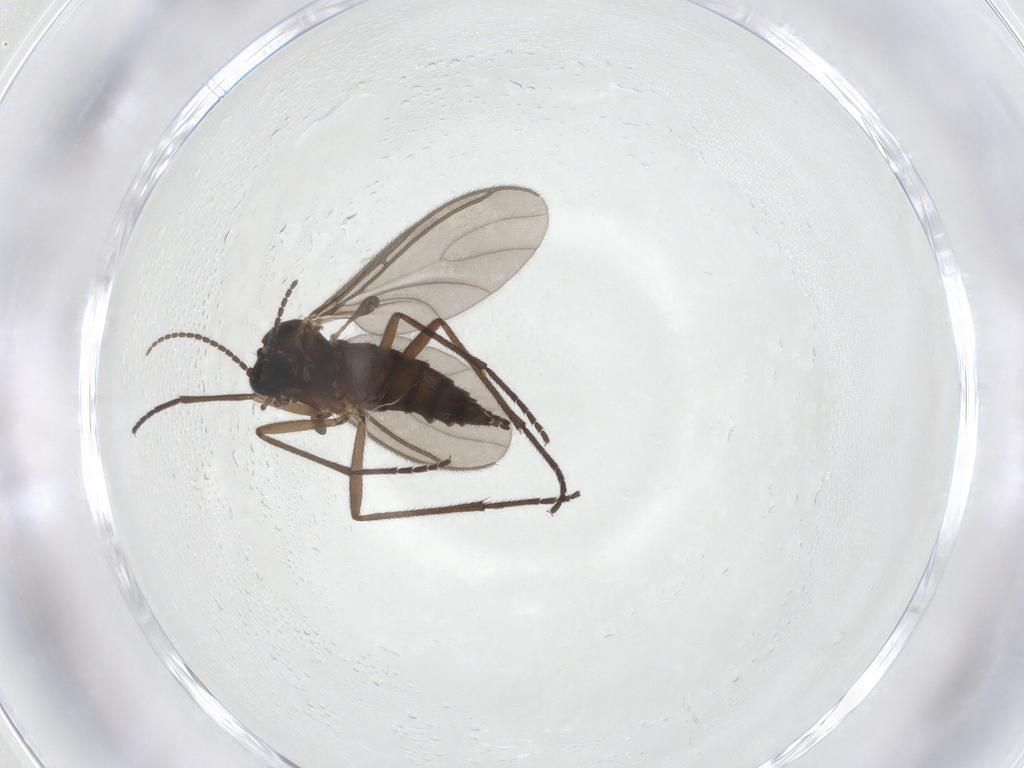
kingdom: Animalia
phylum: Arthropoda
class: Insecta
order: Diptera
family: Sciaridae
